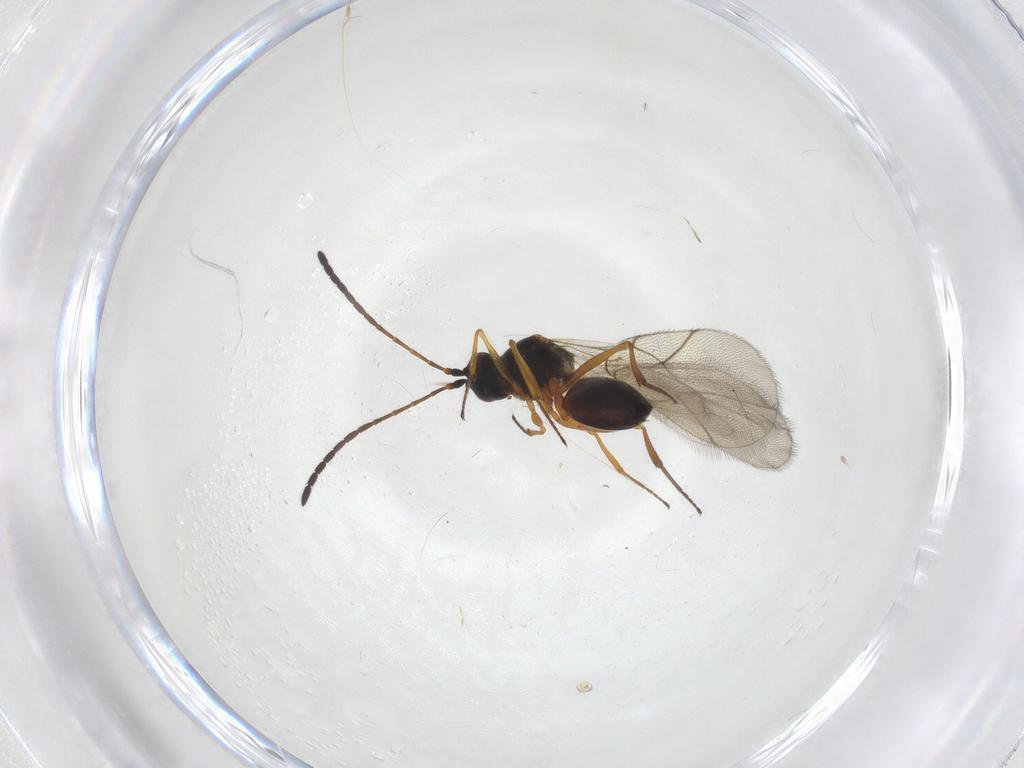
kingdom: Animalia
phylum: Arthropoda
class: Insecta
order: Hymenoptera
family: Figitidae
